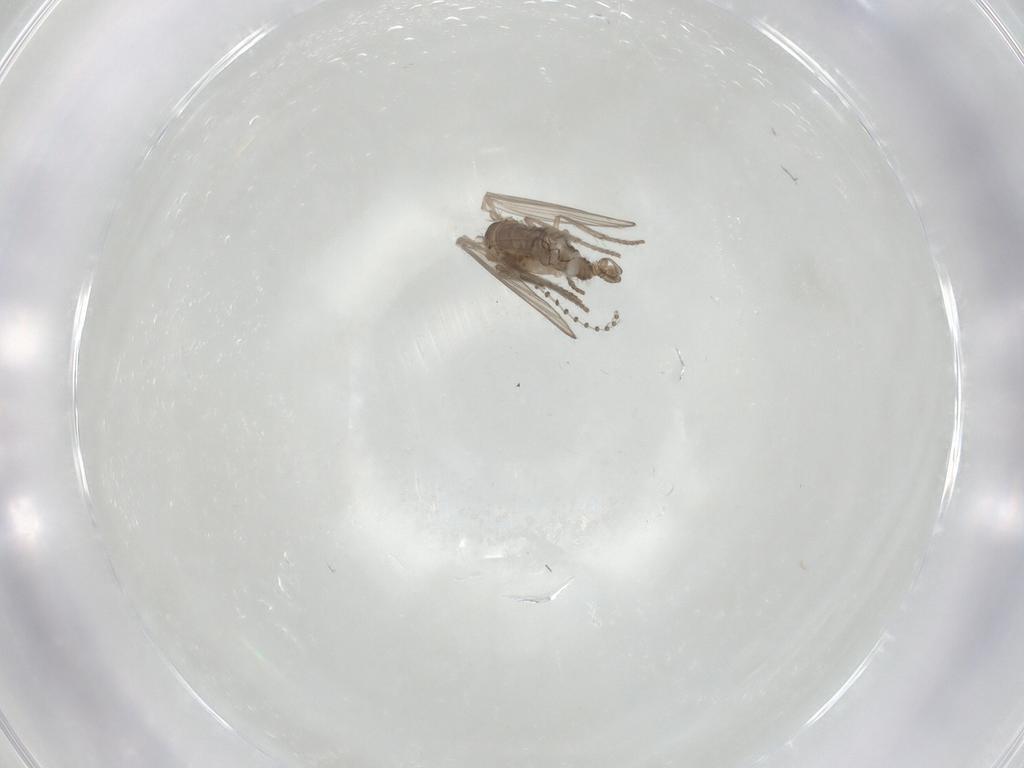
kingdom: Animalia
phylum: Arthropoda
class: Insecta
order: Diptera
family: Psychodidae
